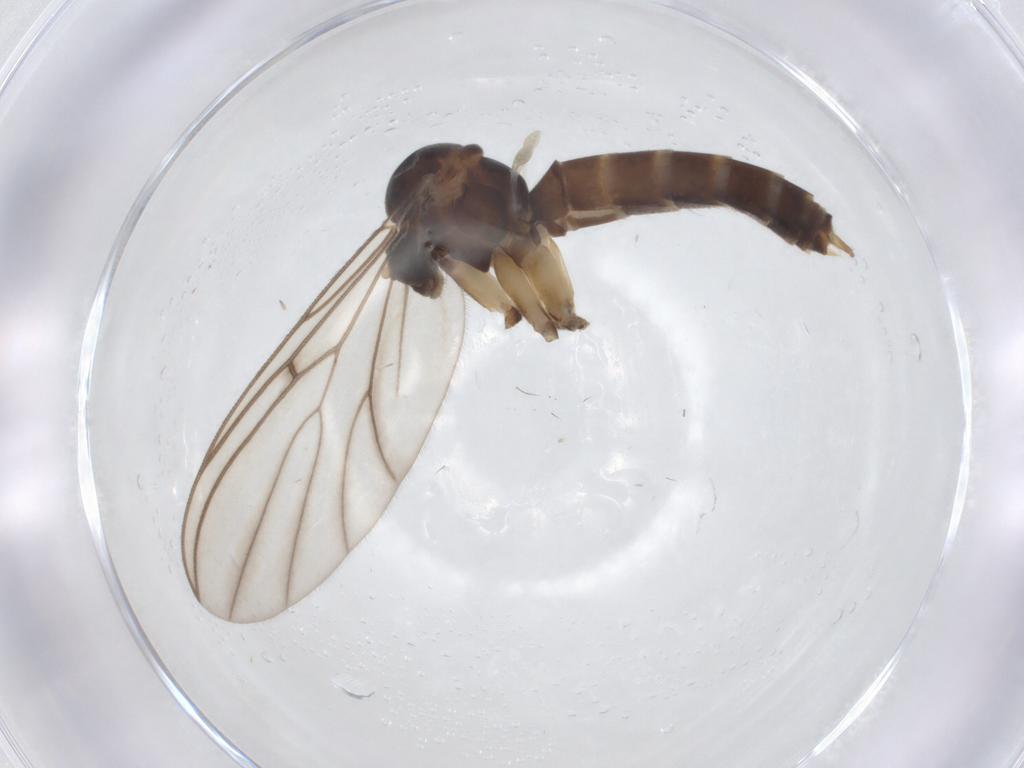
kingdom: Animalia
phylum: Arthropoda
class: Insecta
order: Diptera
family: Mycetophilidae
